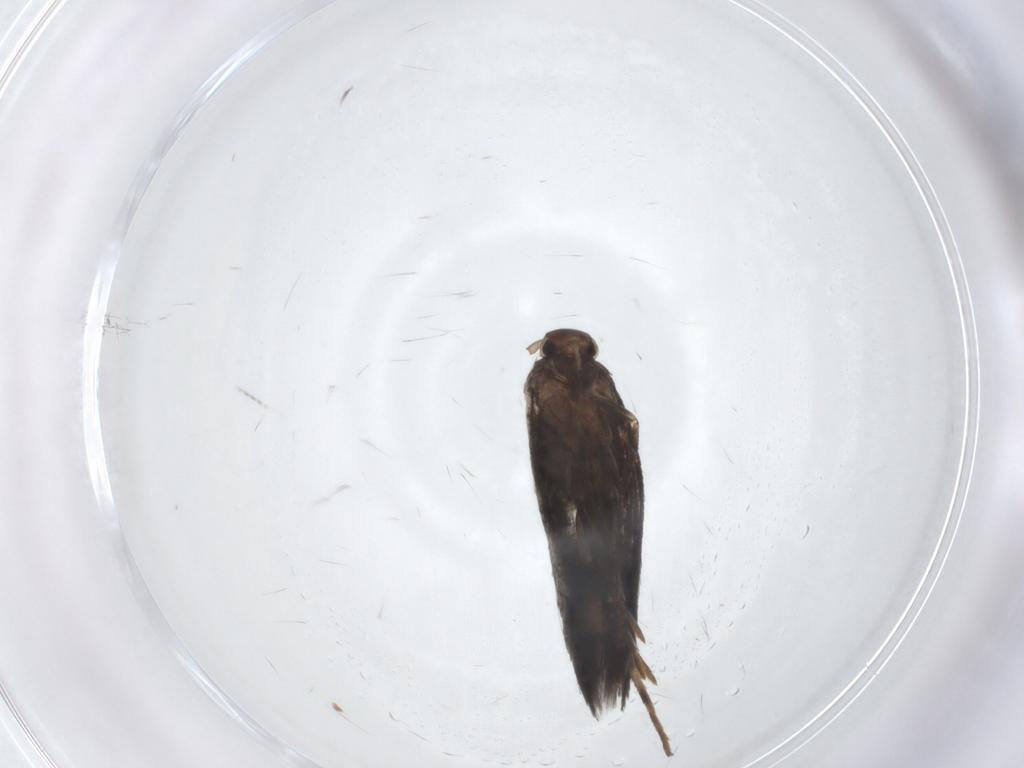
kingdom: Animalia
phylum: Arthropoda
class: Insecta
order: Lepidoptera
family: Elachistidae
